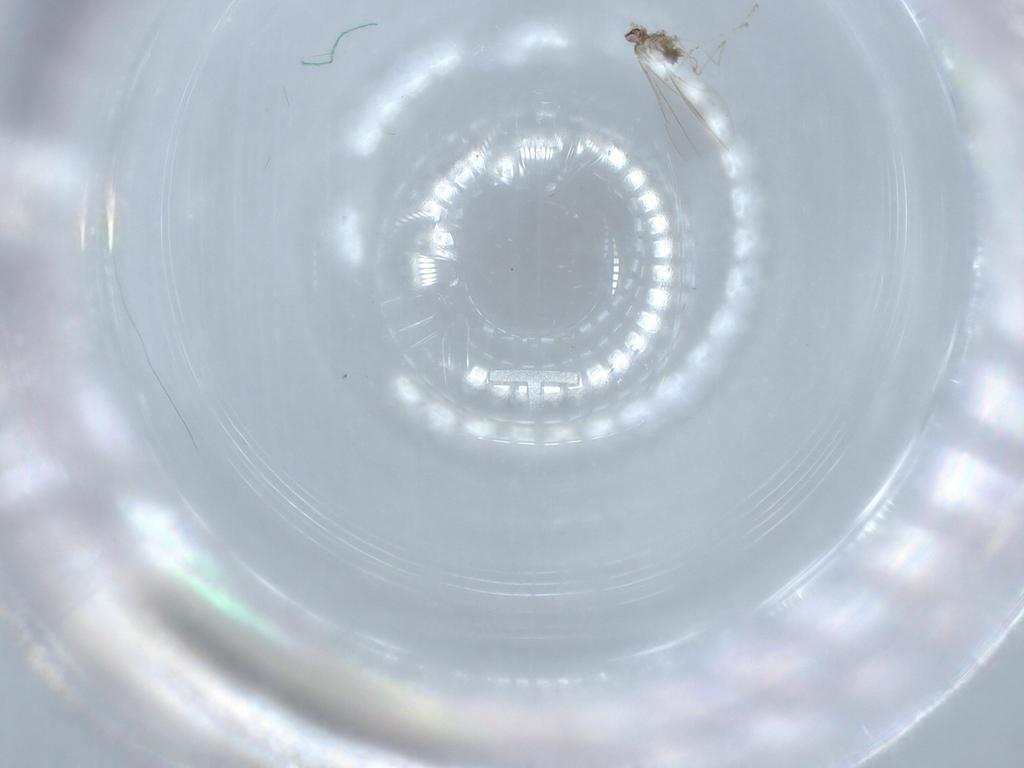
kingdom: Animalia
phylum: Arthropoda
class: Insecta
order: Diptera
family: Cecidomyiidae
